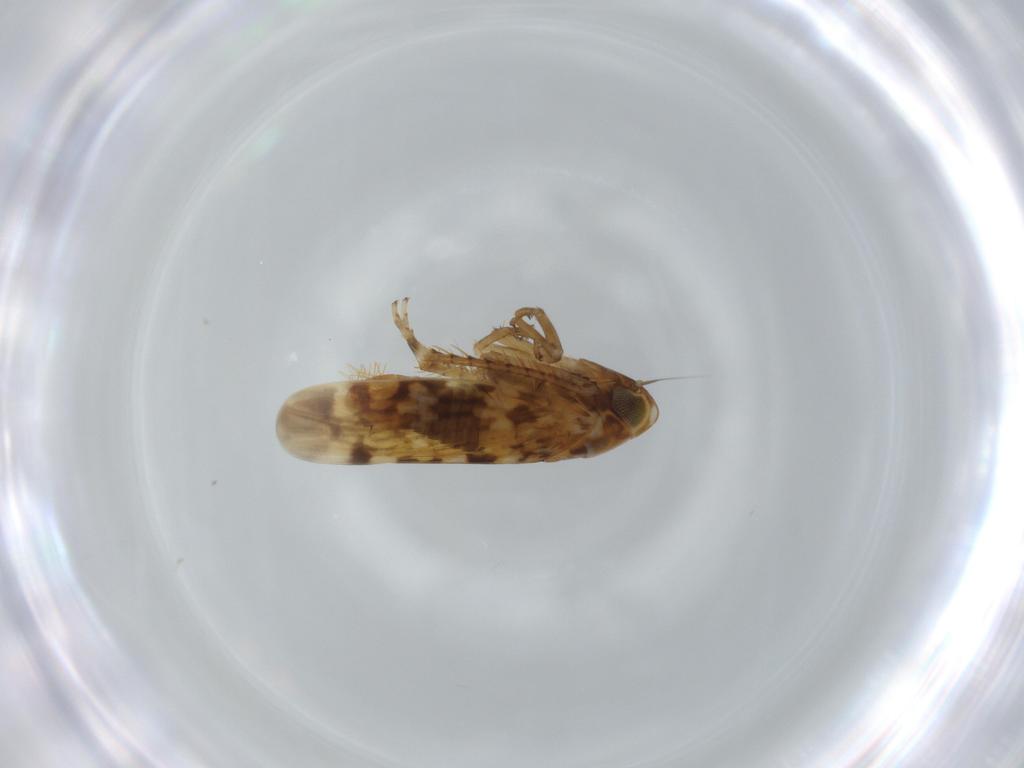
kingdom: Animalia
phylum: Arthropoda
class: Insecta
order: Hemiptera
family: Cicadellidae
